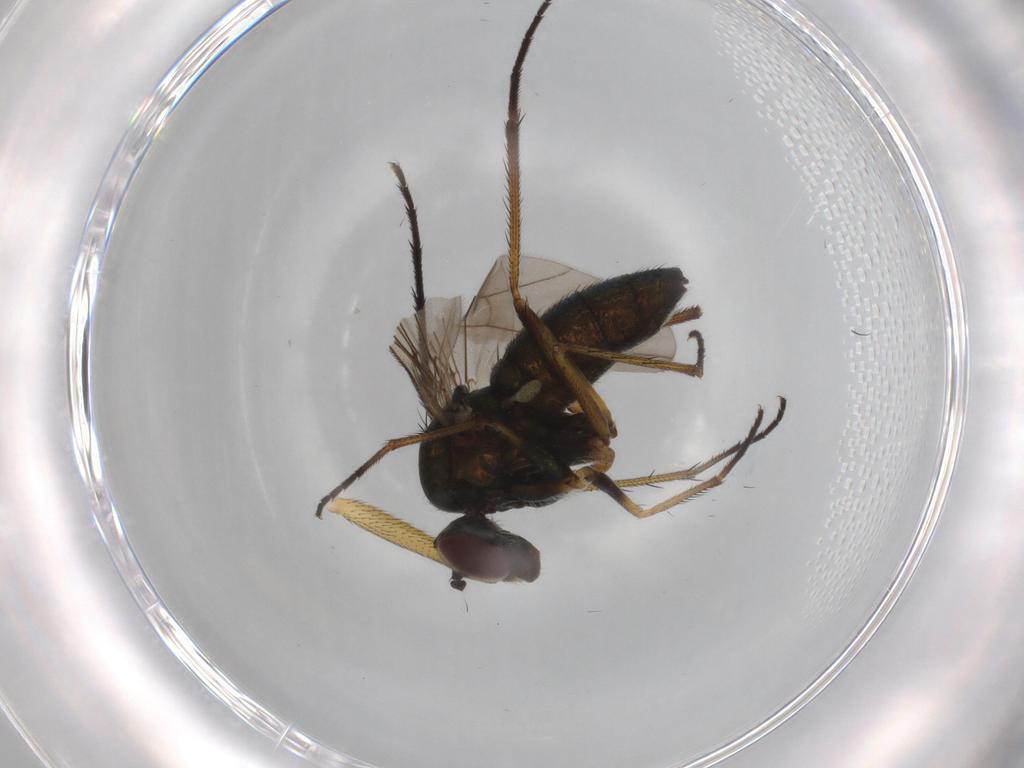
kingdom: Animalia
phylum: Arthropoda
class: Insecta
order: Diptera
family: Dolichopodidae
